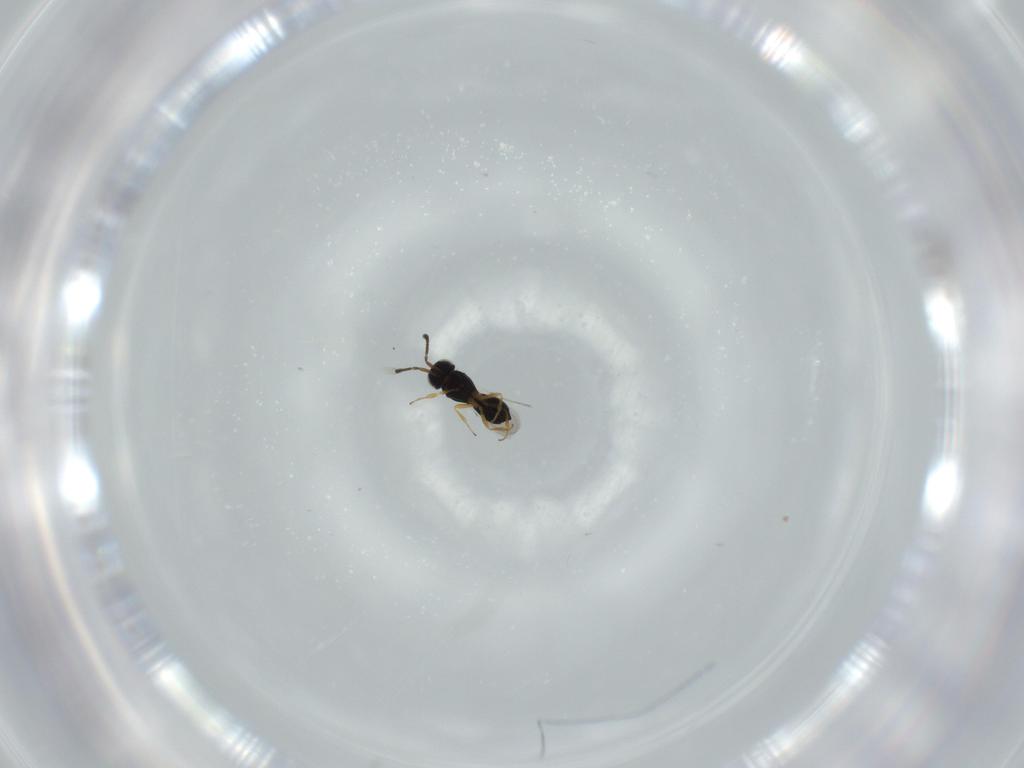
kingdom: Animalia
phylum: Arthropoda
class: Insecta
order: Hymenoptera
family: Scelionidae
